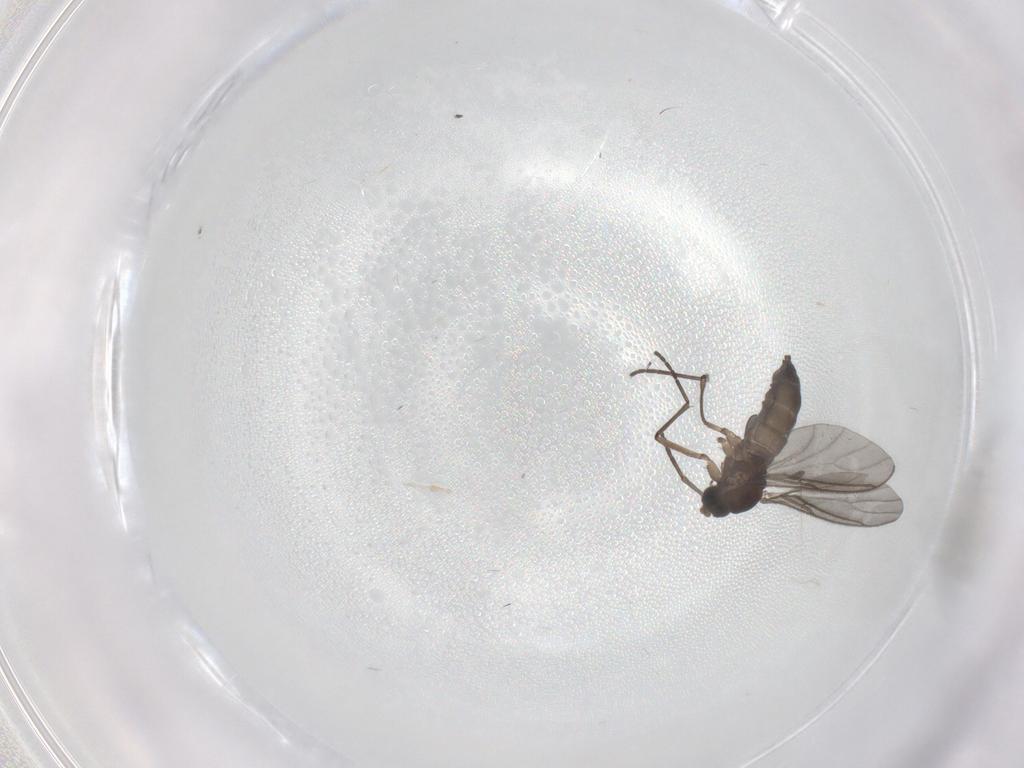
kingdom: Animalia
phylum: Arthropoda
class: Insecta
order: Diptera
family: Sciaridae
